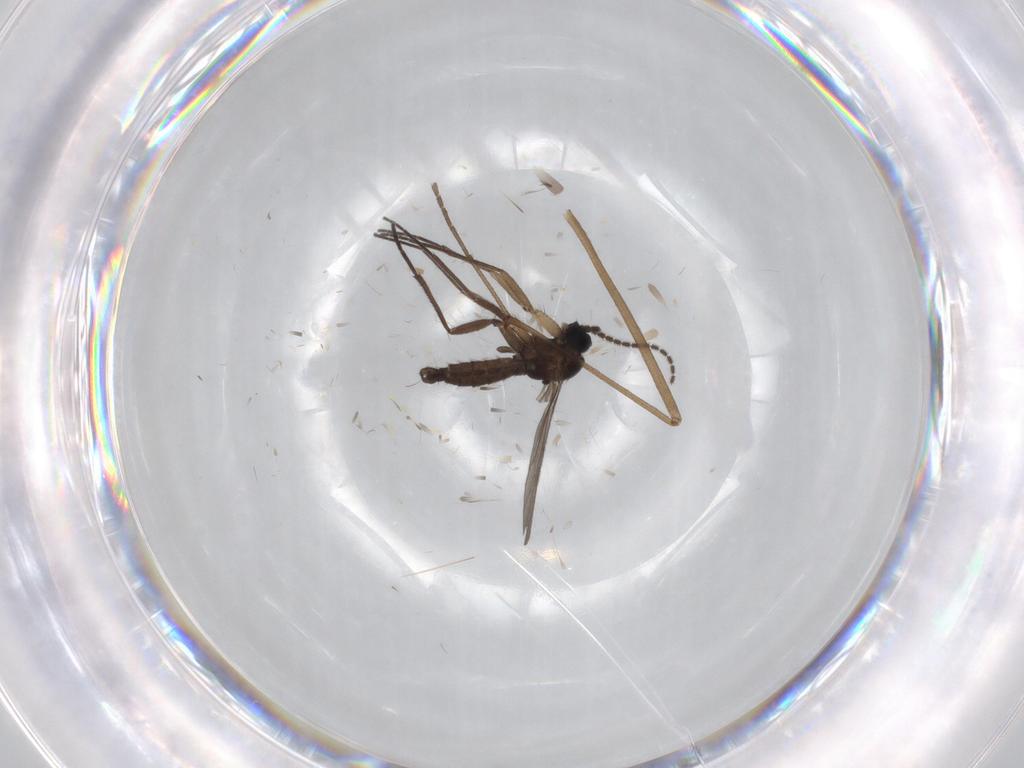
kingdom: Animalia
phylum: Arthropoda
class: Insecta
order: Diptera
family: Limoniidae
